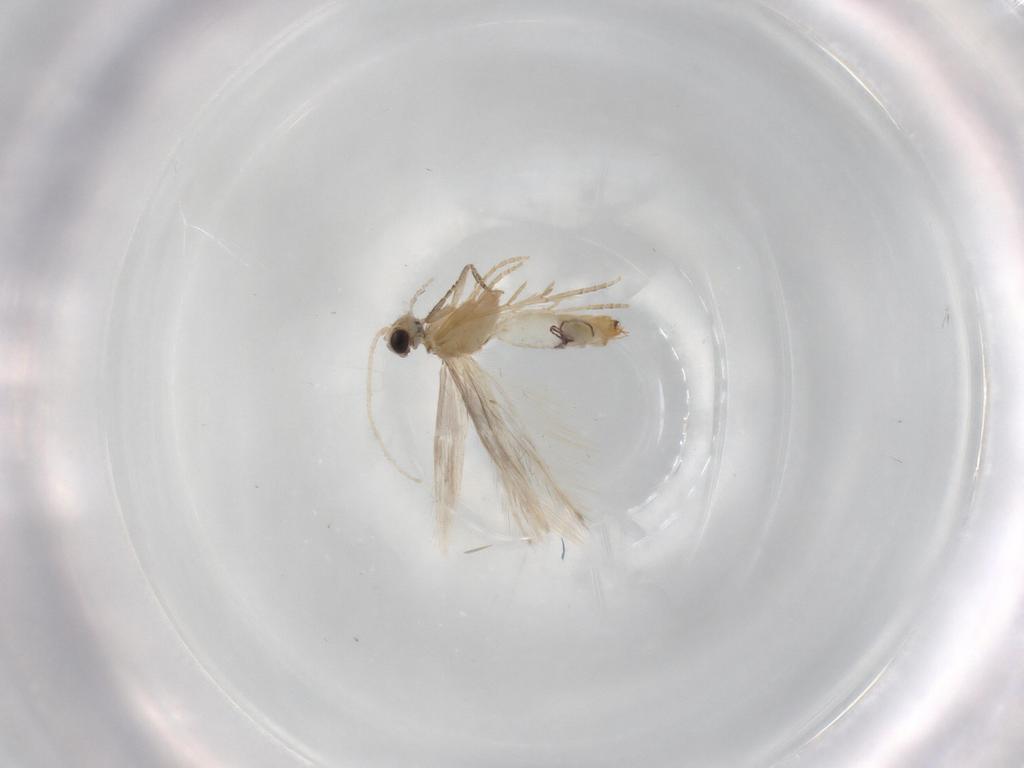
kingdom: Animalia
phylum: Arthropoda
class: Insecta
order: Trichoptera
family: Hydroptilidae
